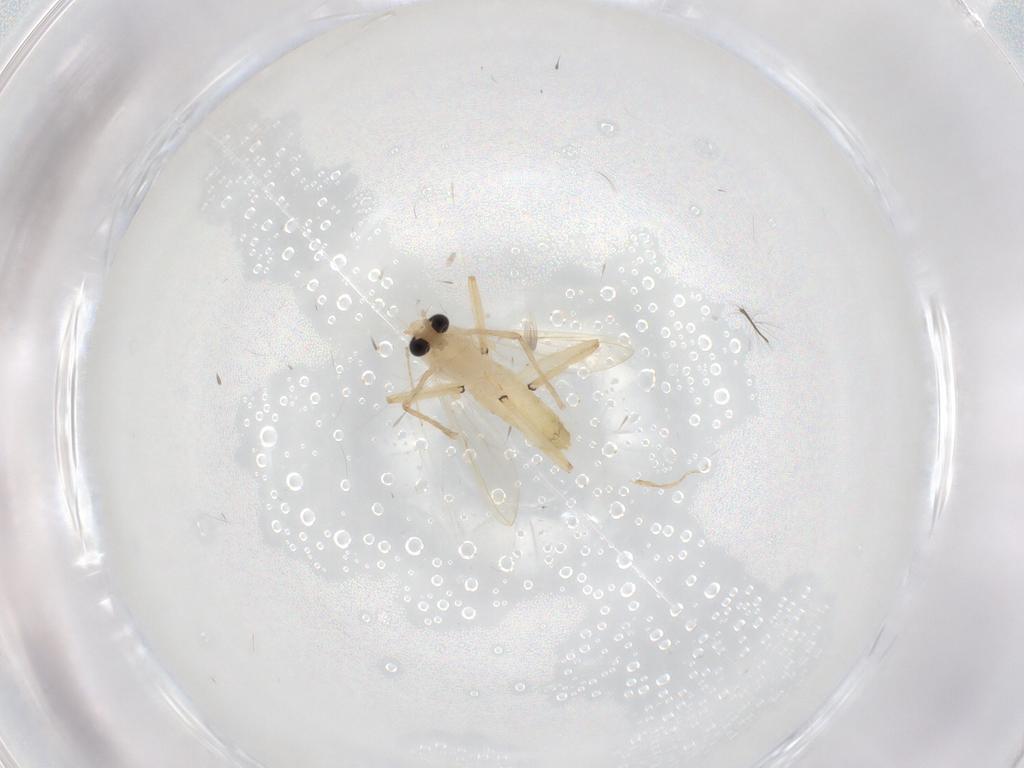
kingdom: Animalia
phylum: Arthropoda
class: Insecta
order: Diptera
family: Chironomidae
